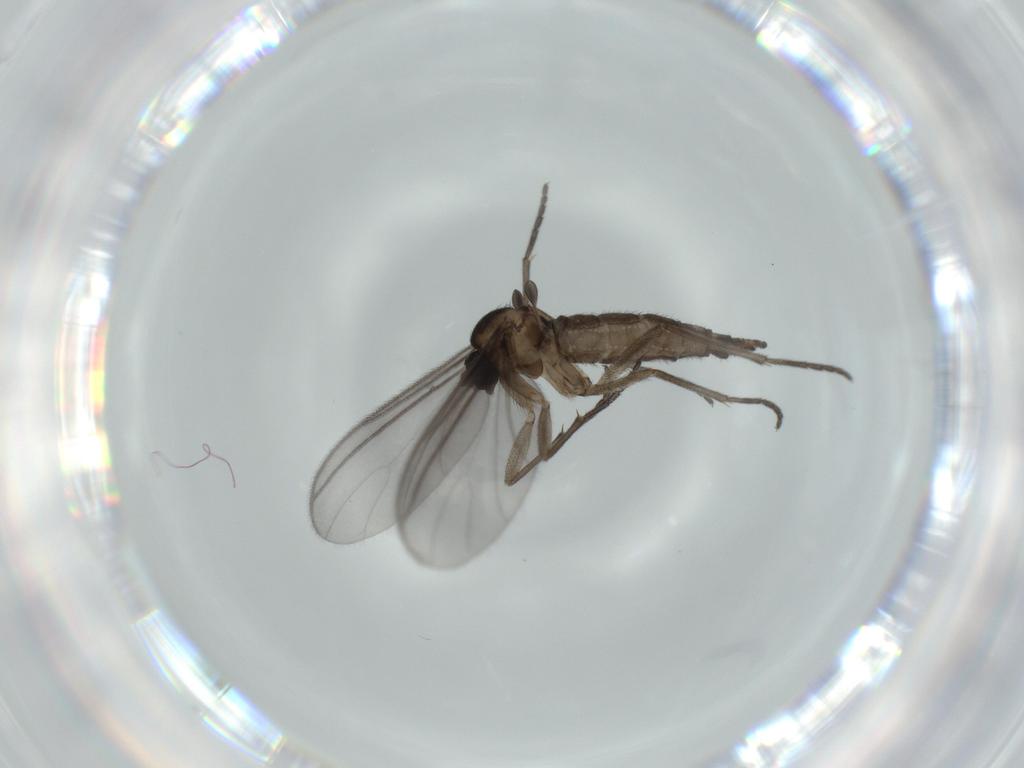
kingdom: Animalia
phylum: Arthropoda
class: Insecta
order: Diptera
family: Sciaridae
